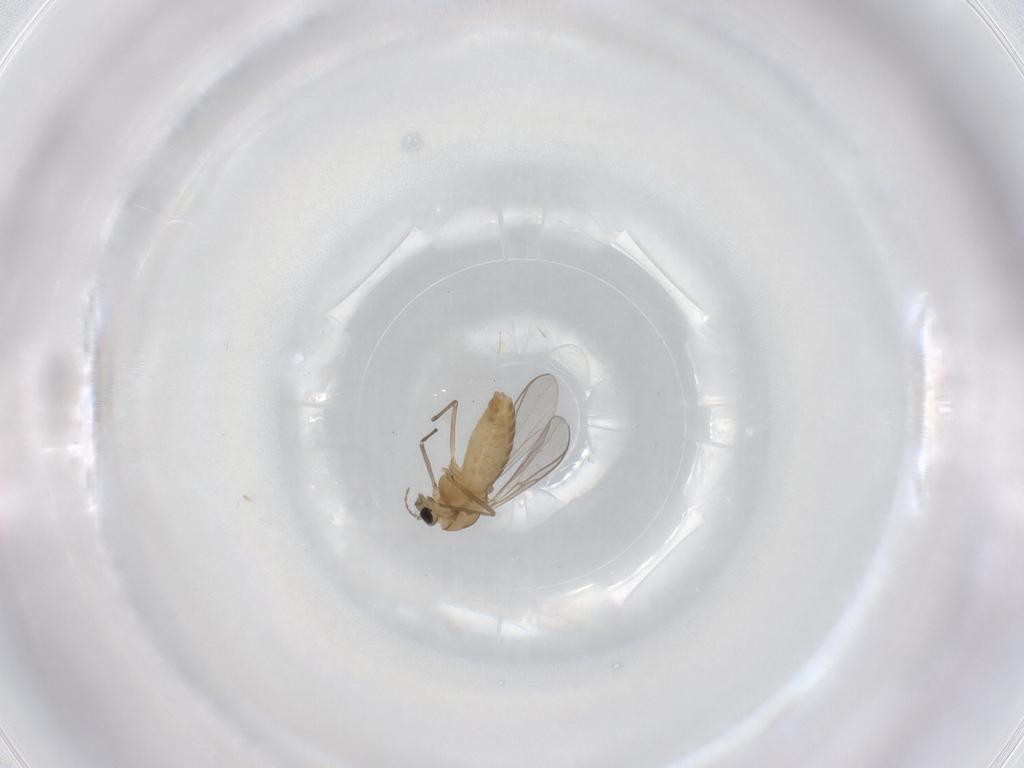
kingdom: Animalia
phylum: Arthropoda
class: Insecta
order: Diptera
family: Chironomidae
